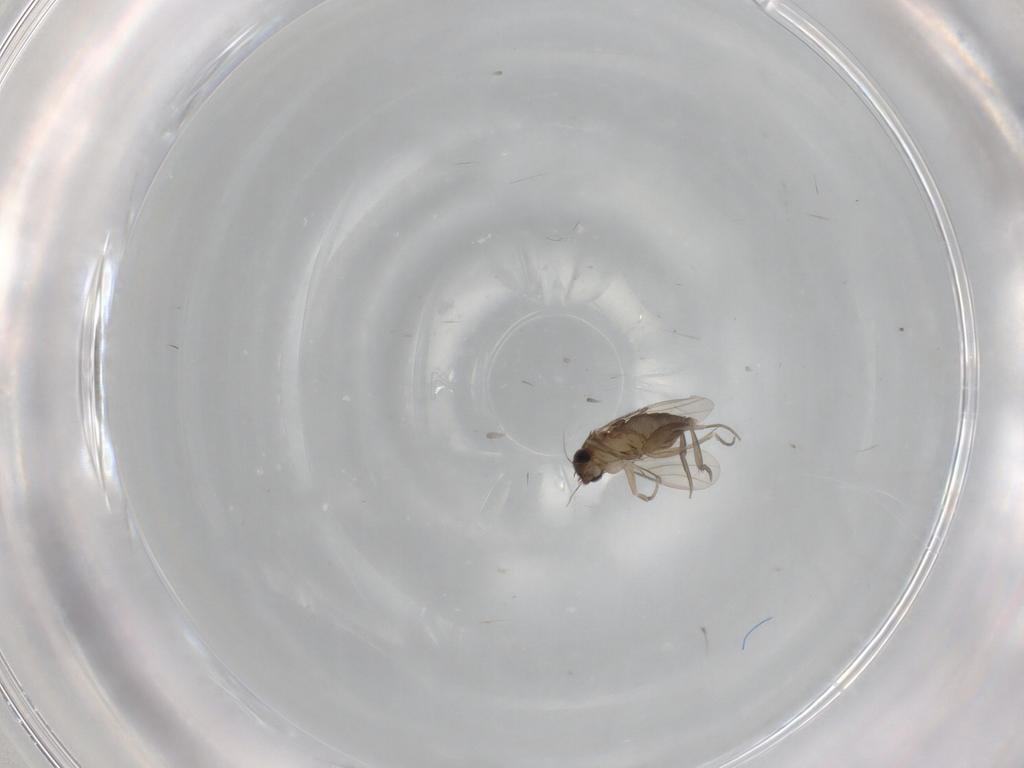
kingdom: Animalia
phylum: Arthropoda
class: Insecta
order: Diptera
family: Phoridae
